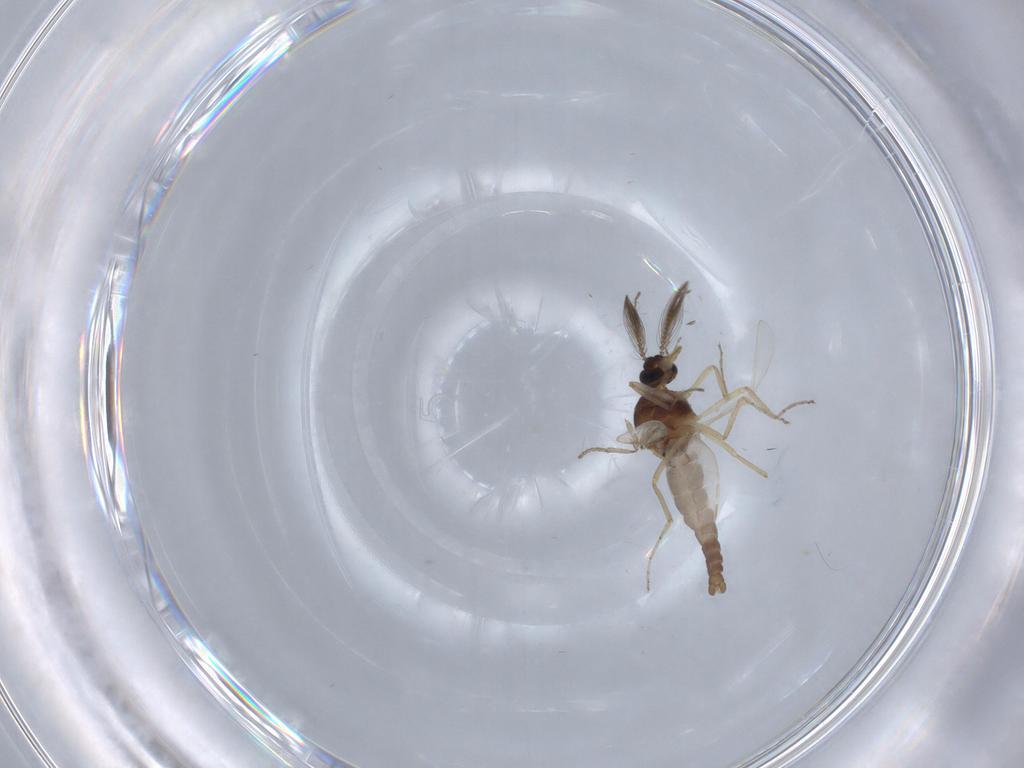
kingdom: Animalia
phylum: Arthropoda
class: Insecta
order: Diptera
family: Ceratopogonidae
